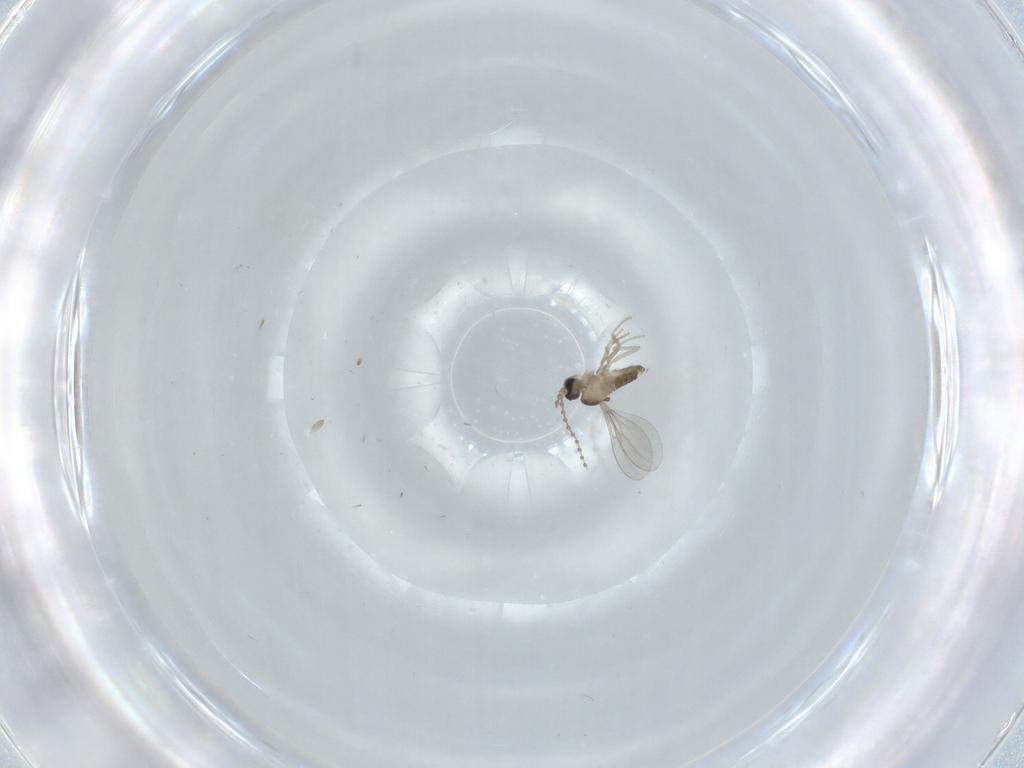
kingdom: Animalia
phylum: Arthropoda
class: Insecta
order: Diptera
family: Cecidomyiidae
